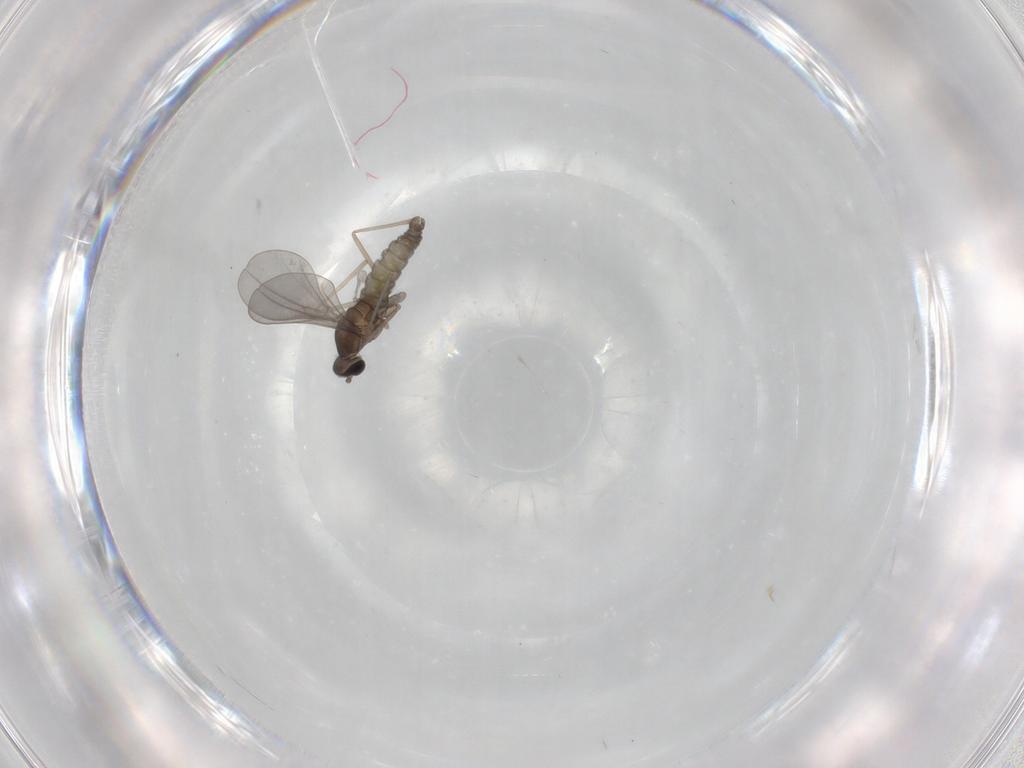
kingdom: Animalia
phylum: Arthropoda
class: Insecta
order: Diptera
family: Cecidomyiidae
